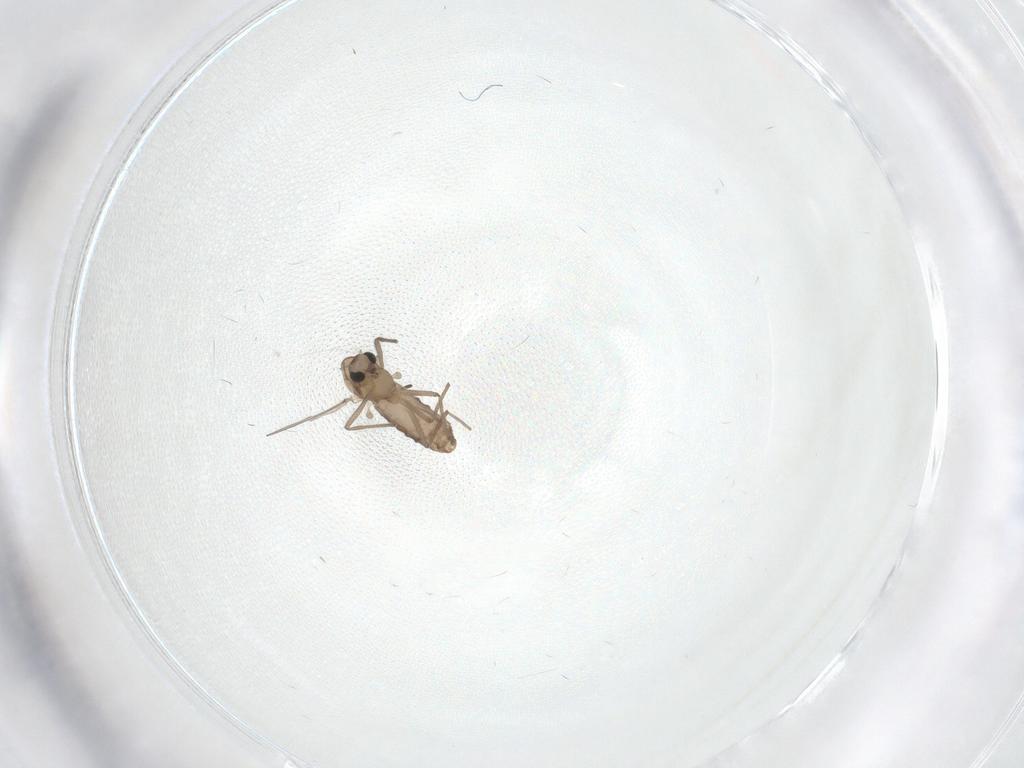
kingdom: Animalia
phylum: Arthropoda
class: Insecta
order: Diptera
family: Chironomidae
